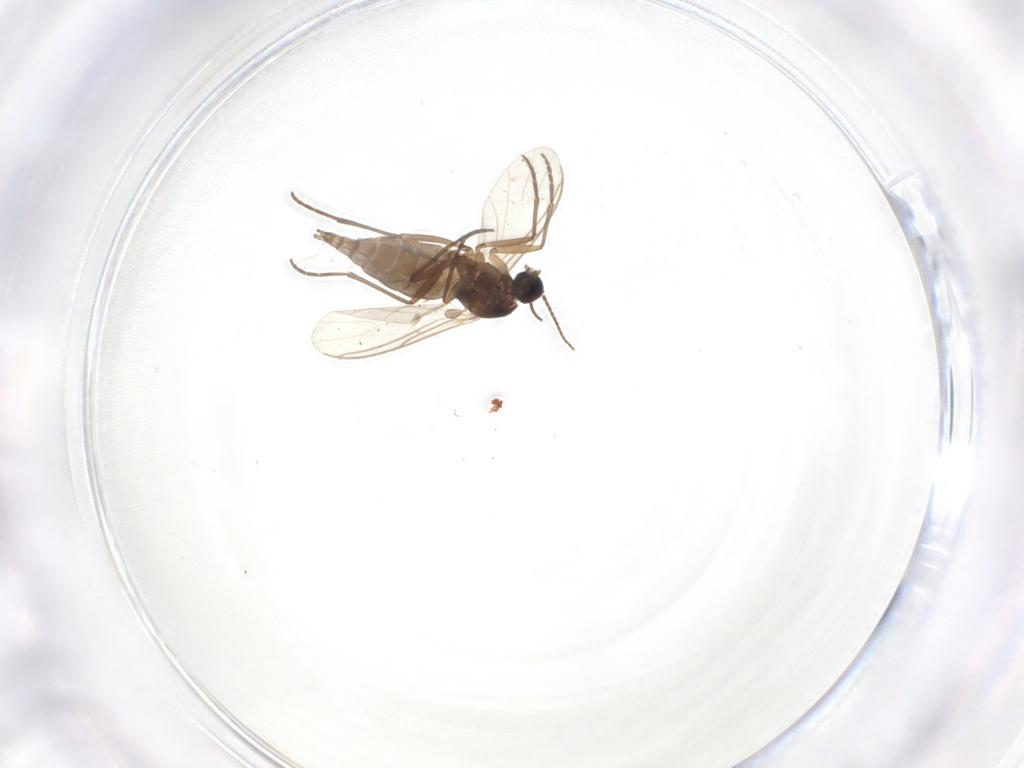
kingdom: Animalia
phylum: Arthropoda
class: Insecta
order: Diptera
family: Sciaridae
